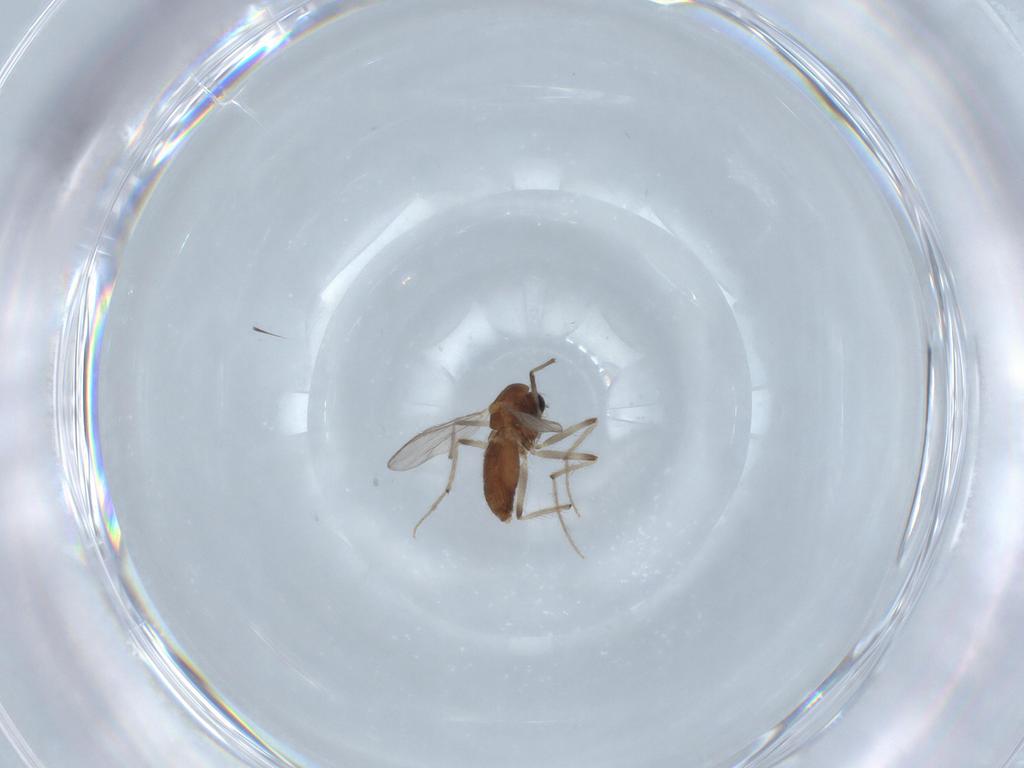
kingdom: Animalia
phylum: Arthropoda
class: Insecta
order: Diptera
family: Chironomidae
